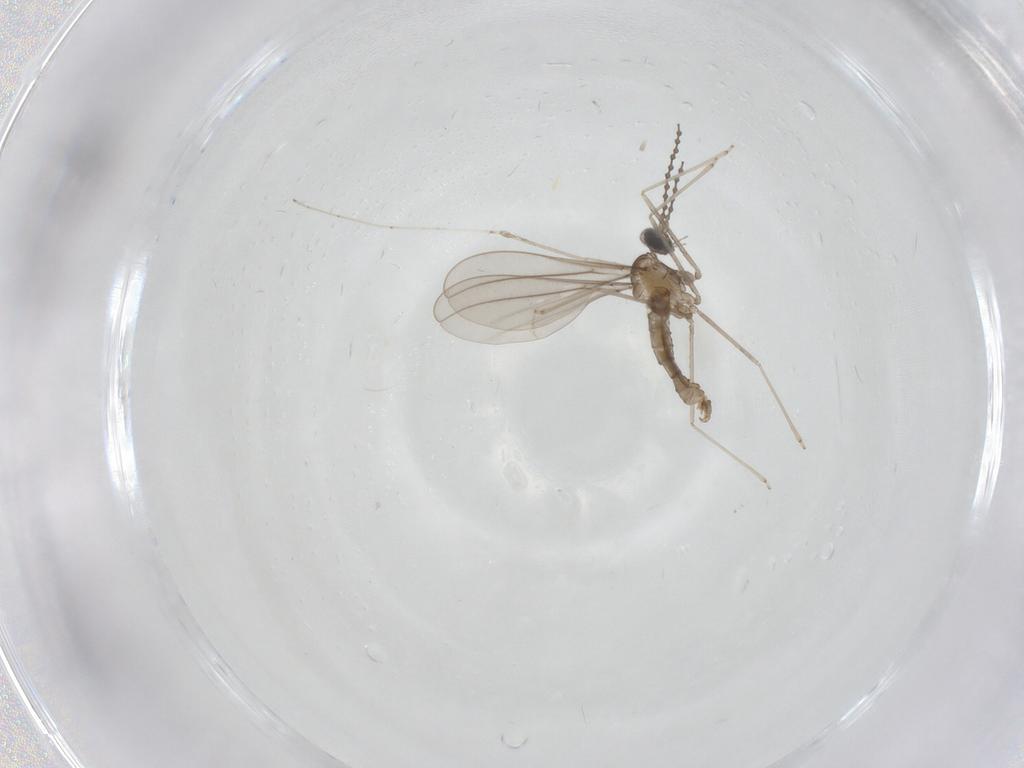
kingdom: Animalia
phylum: Arthropoda
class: Insecta
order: Diptera
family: Cecidomyiidae
